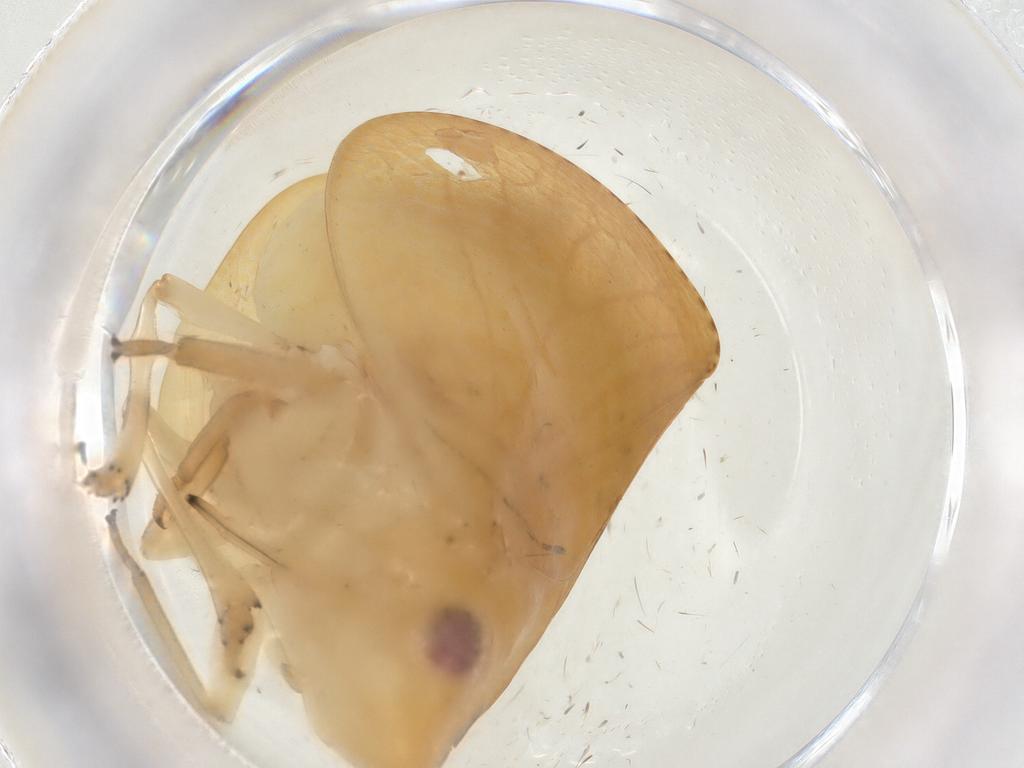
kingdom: Animalia
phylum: Arthropoda
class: Insecta
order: Hemiptera
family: Acanaloniidae
